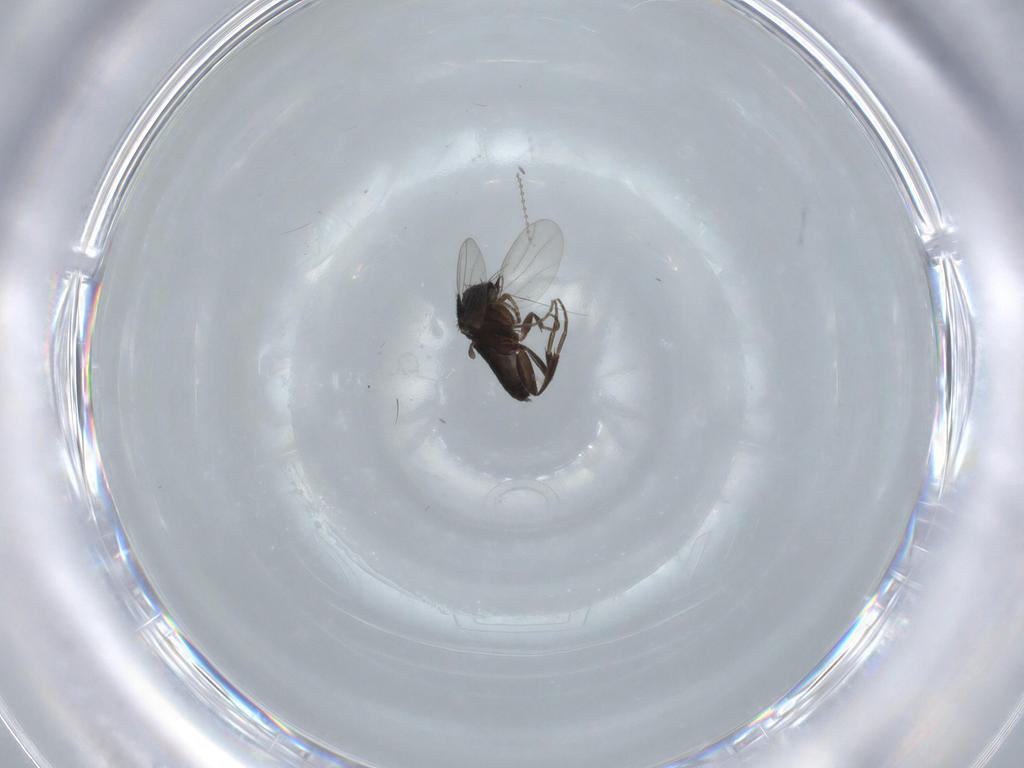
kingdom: Animalia
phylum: Arthropoda
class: Insecta
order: Diptera
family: Phoridae
